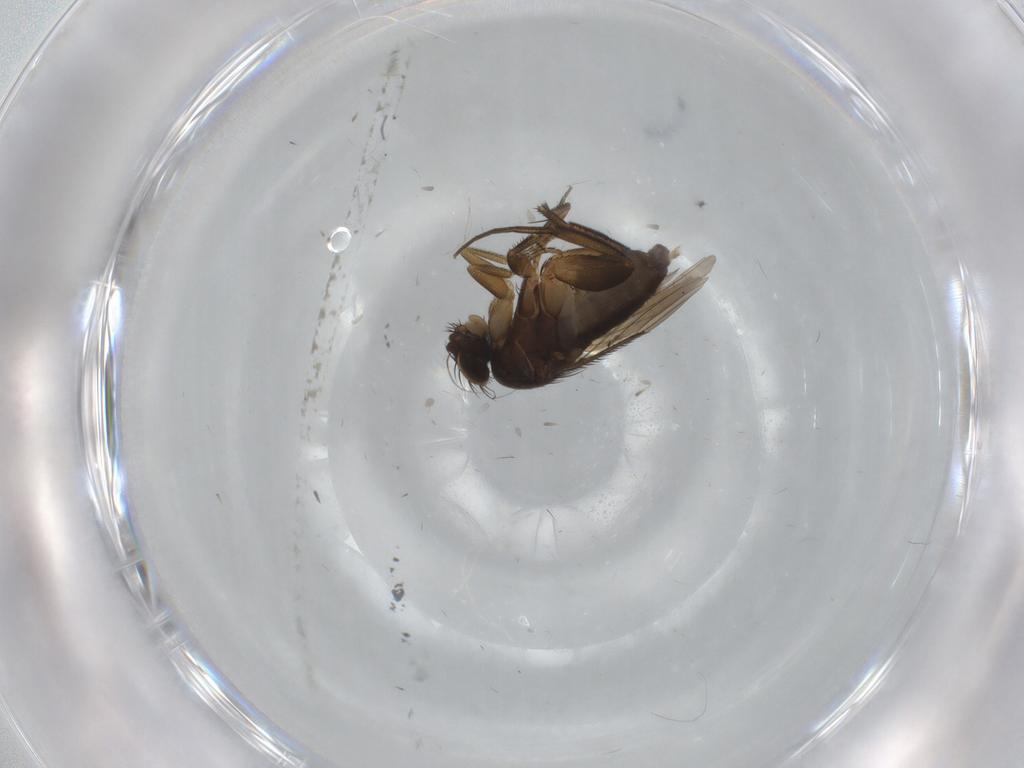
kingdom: Animalia
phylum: Arthropoda
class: Insecta
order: Diptera
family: Phoridae
